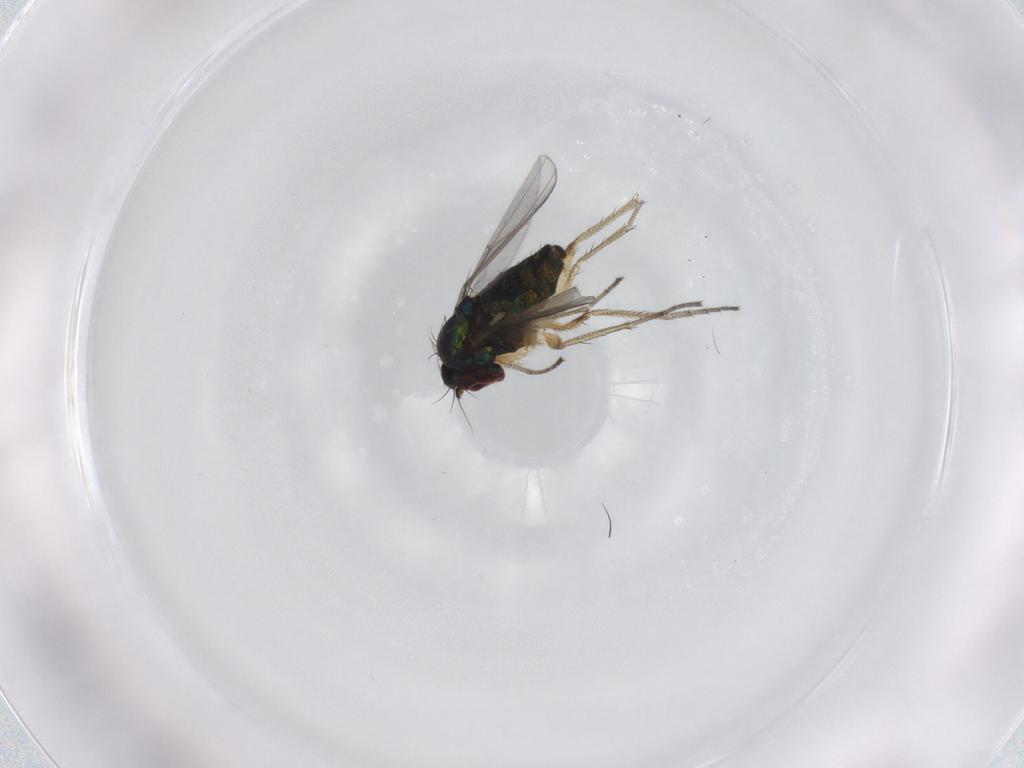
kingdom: Animalia
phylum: Arthropoda
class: Insecta
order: Diptera
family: Dolichopodidae
